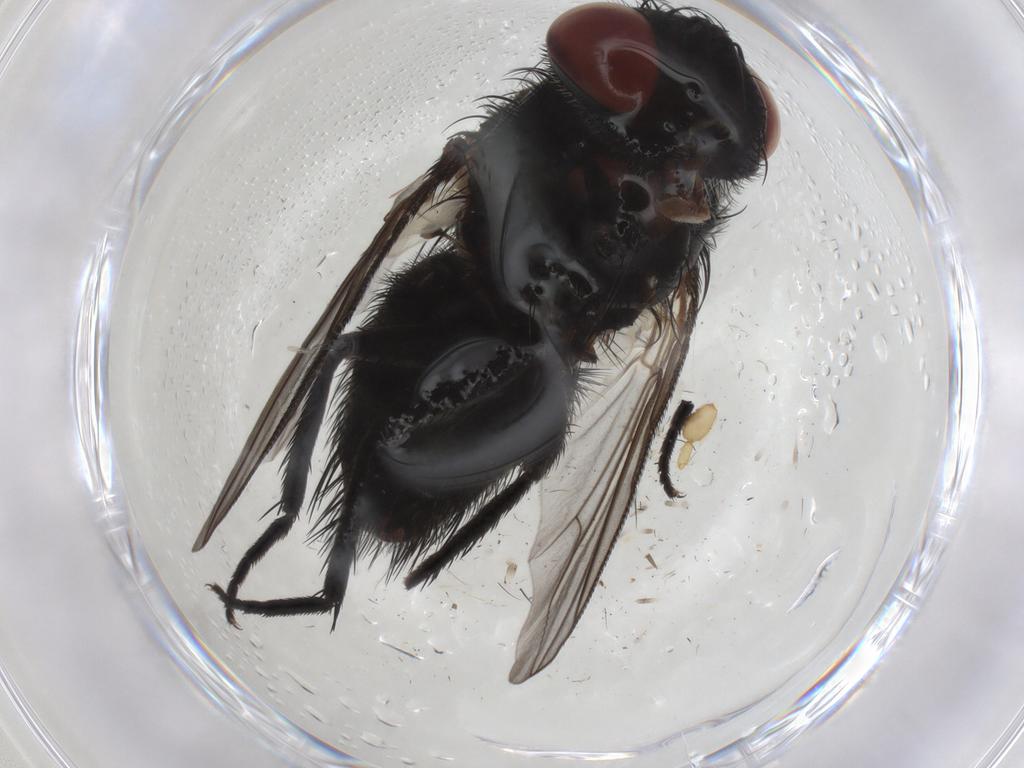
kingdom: Animalia
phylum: Arthropoda
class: Insecta
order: Diptera
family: Tachinidae
